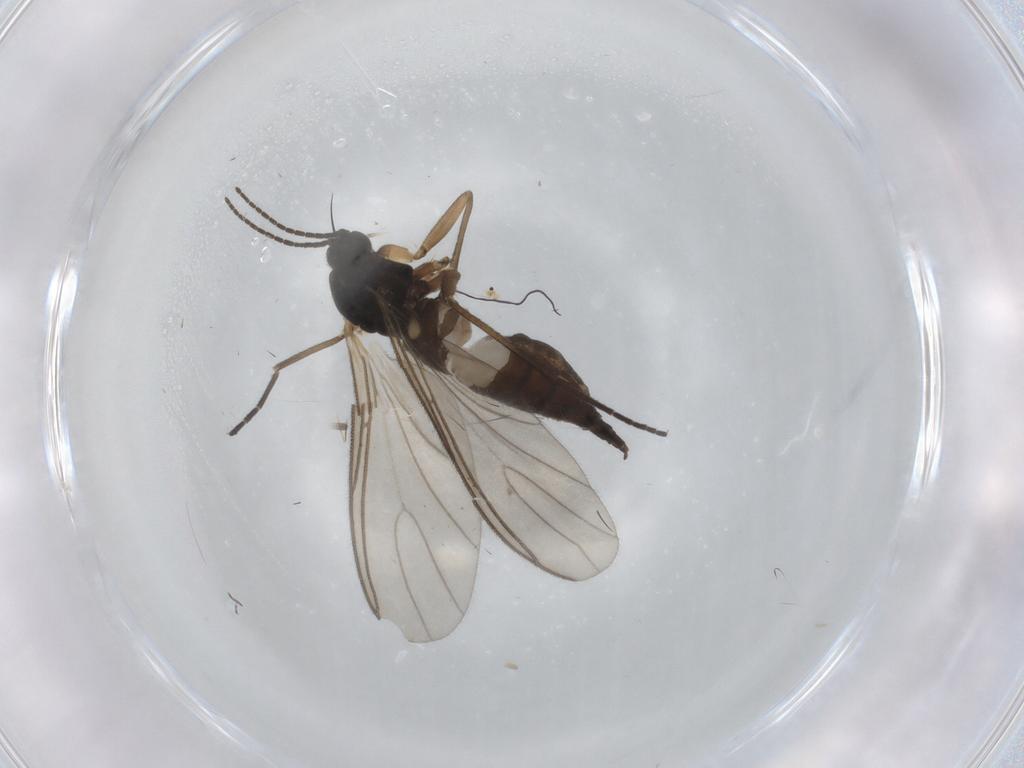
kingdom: Animalia
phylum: Arthropoda
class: Insecta
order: Diptera
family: Sciaridae
